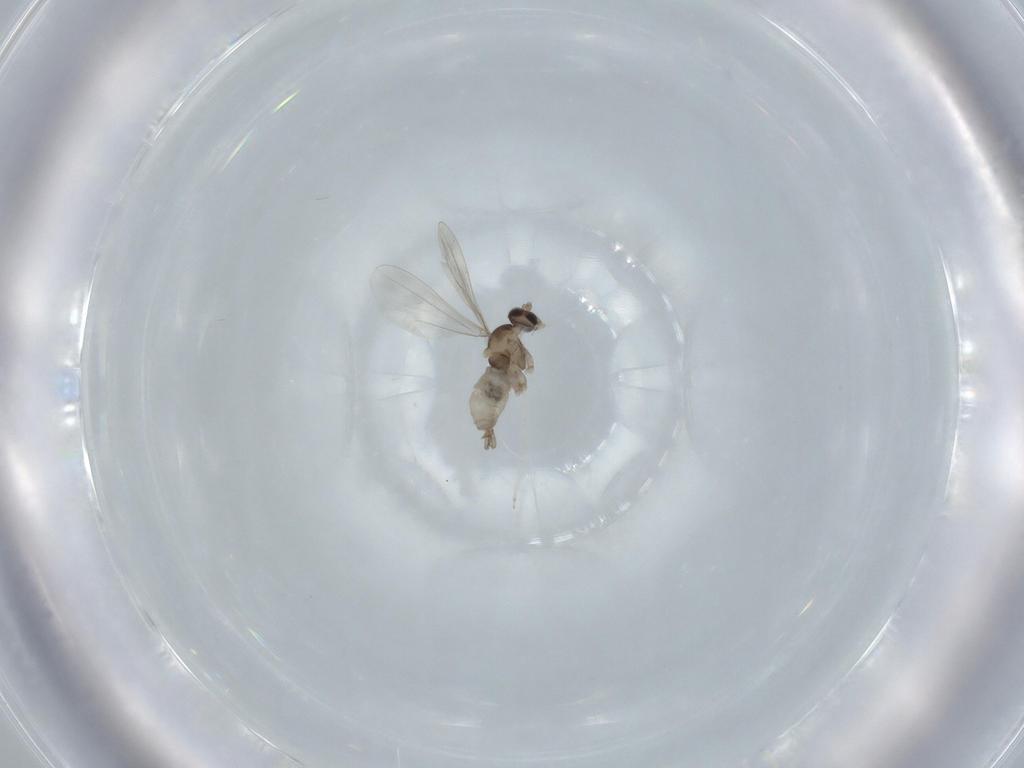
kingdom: Animalia
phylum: Arthropoda
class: Insecta
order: Diptera
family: Cecidomyiidae
